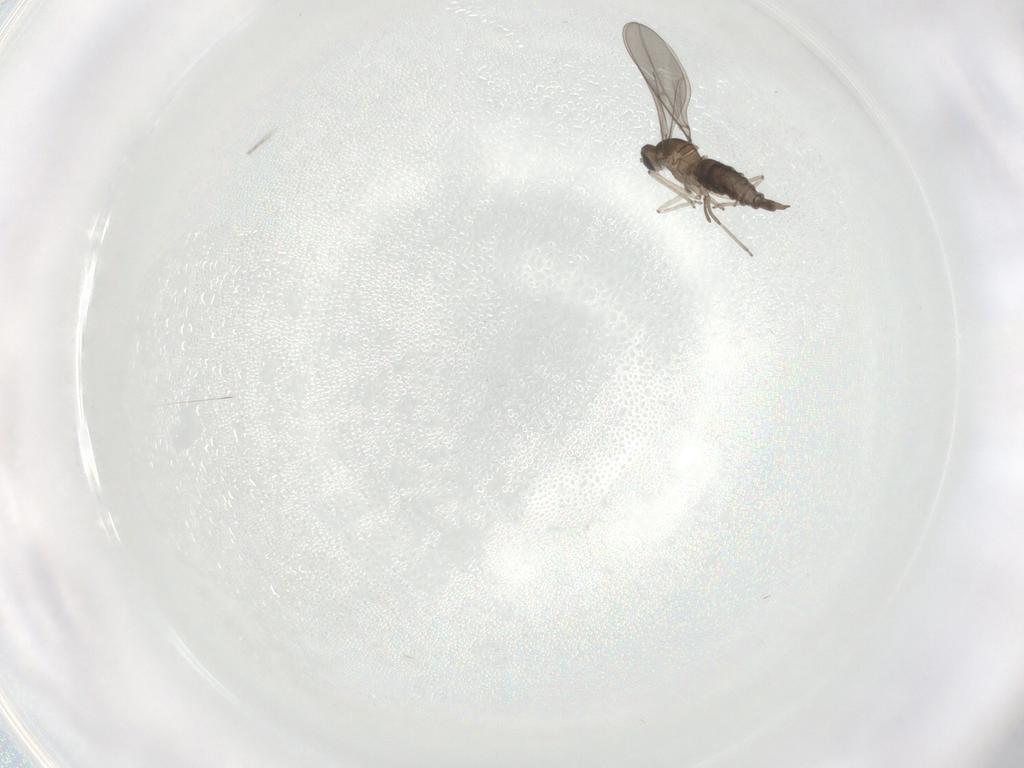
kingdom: Animalia
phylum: Arthropoda
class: Insecta
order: Diptera
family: Cecidomyiidae
